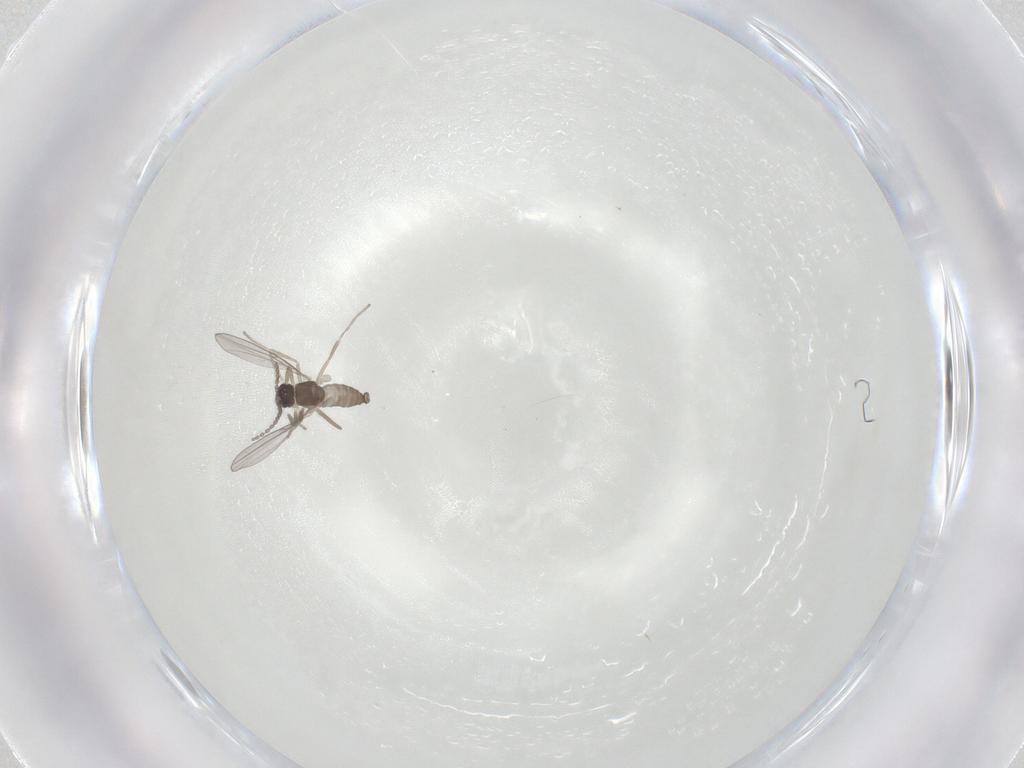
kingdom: Animalia
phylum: Arthropoda
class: Insecta
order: Diptera
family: Cecidomyiidae
